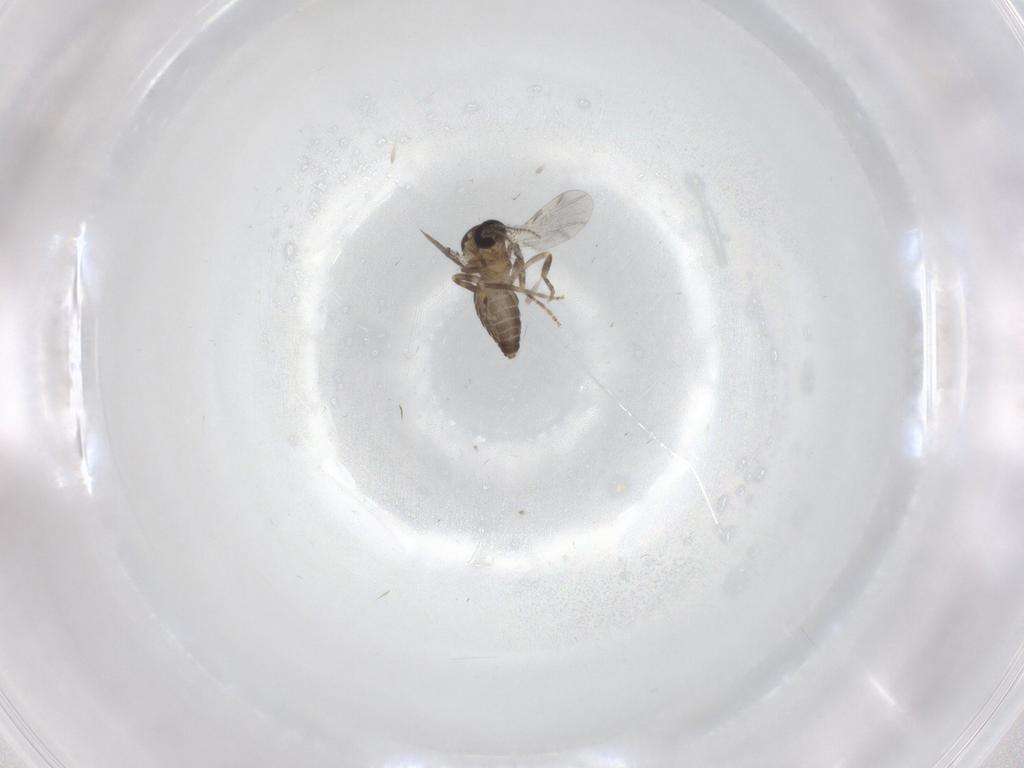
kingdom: Animalia
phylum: Arthropoda
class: Insecta
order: Diptera
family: Ceratopogonidae
